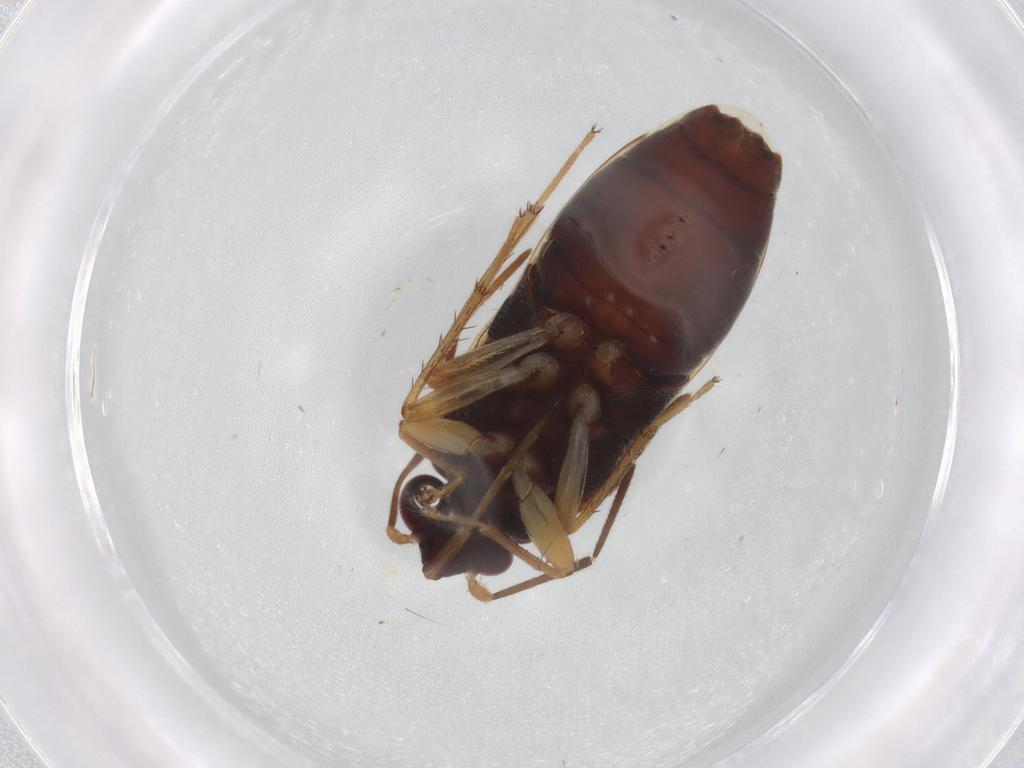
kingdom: Animalia
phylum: Arthropoda
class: Insecta
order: Hemiptera
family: Rhyparochromidae
